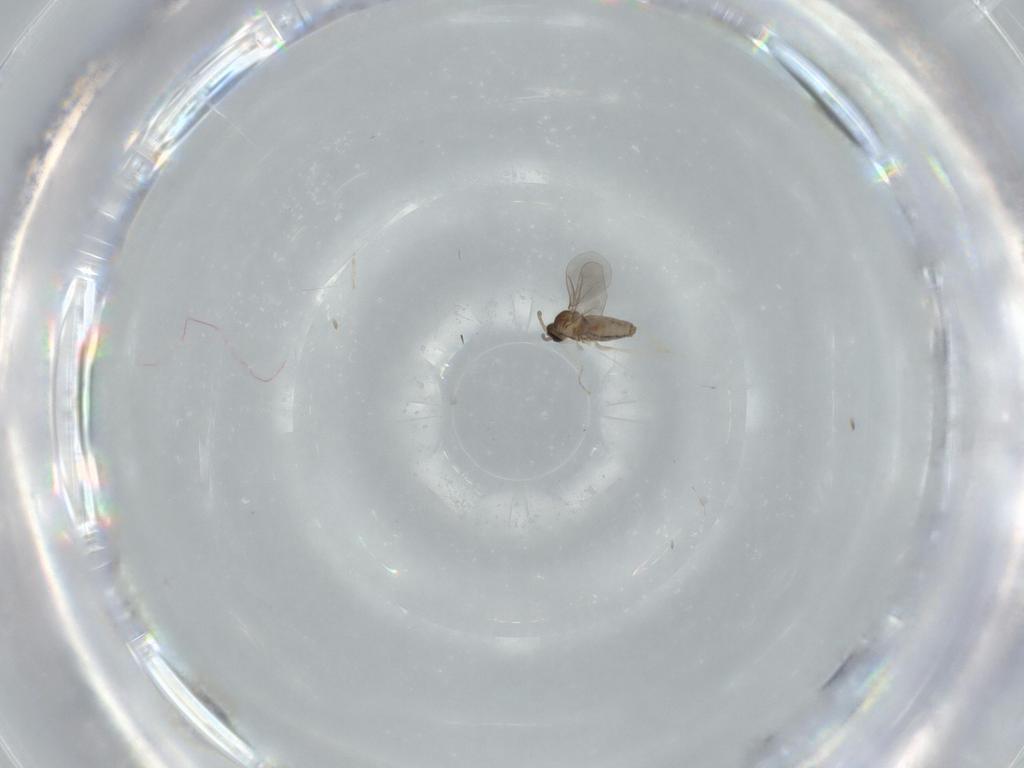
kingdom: Animalia
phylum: Arthropoda
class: Insecta
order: Diptera
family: Cecidomyiidae
